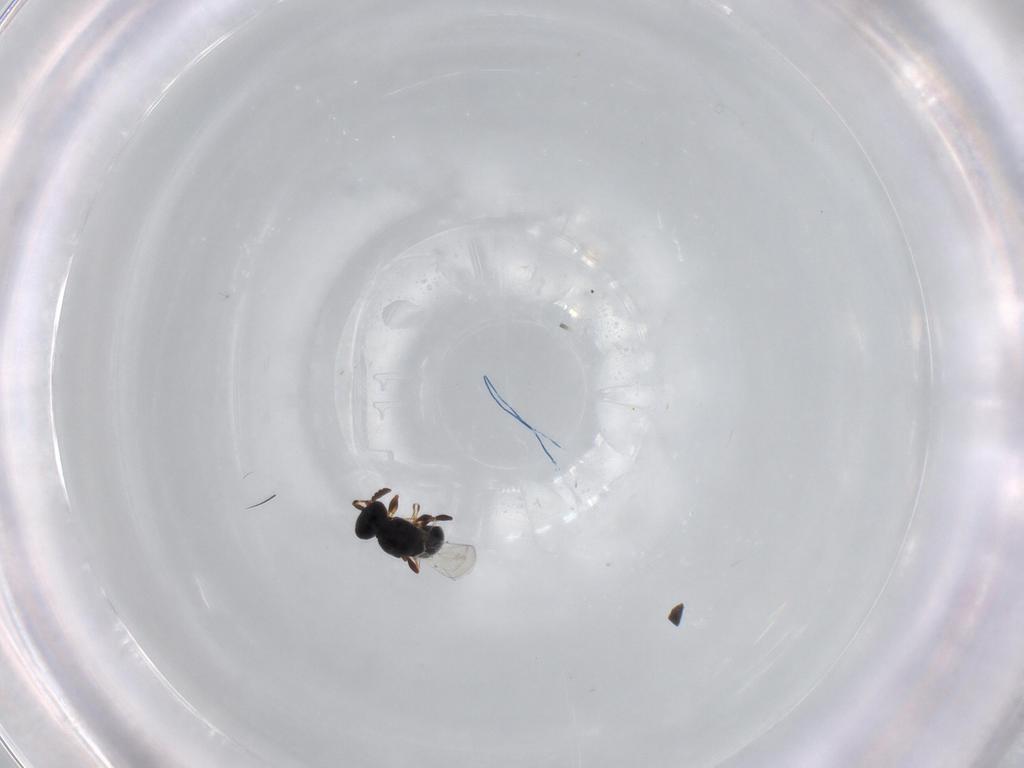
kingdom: Animalia
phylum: Arthropoda
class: Insecta
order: Hymenoptera
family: Platygastridae
